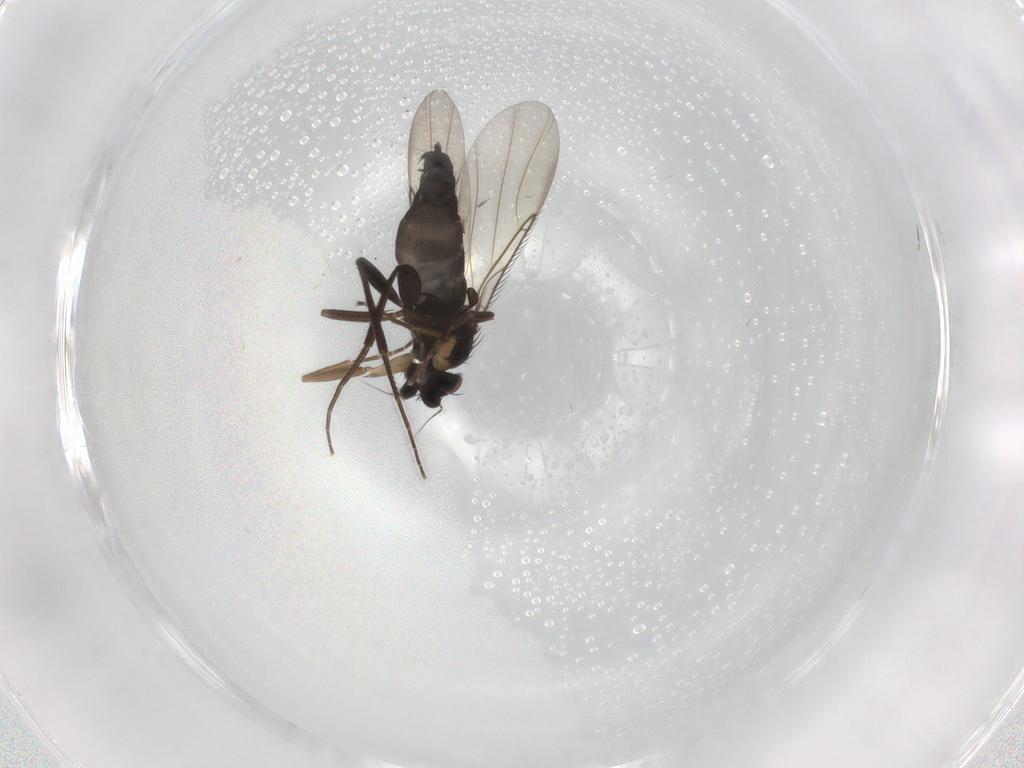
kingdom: Animalia
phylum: Arthropoda
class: Insecta
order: Diptera
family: Phoridae
